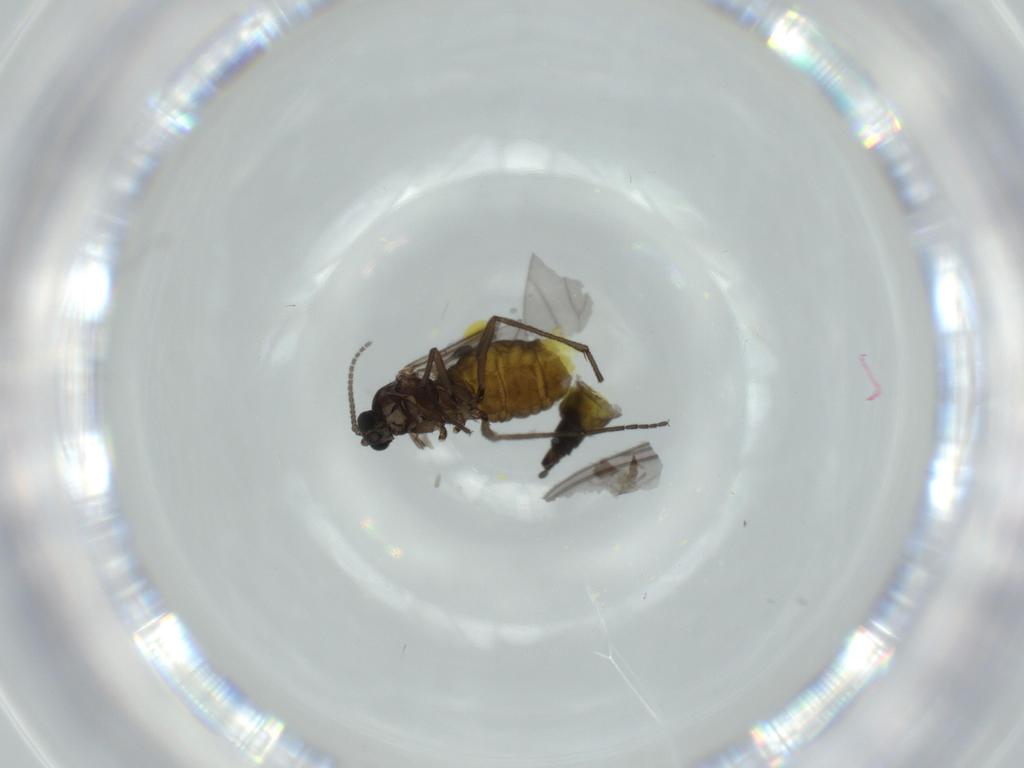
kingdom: Animalia
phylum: Arthropoda
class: Insecta
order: Diptera
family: Sciaridae
